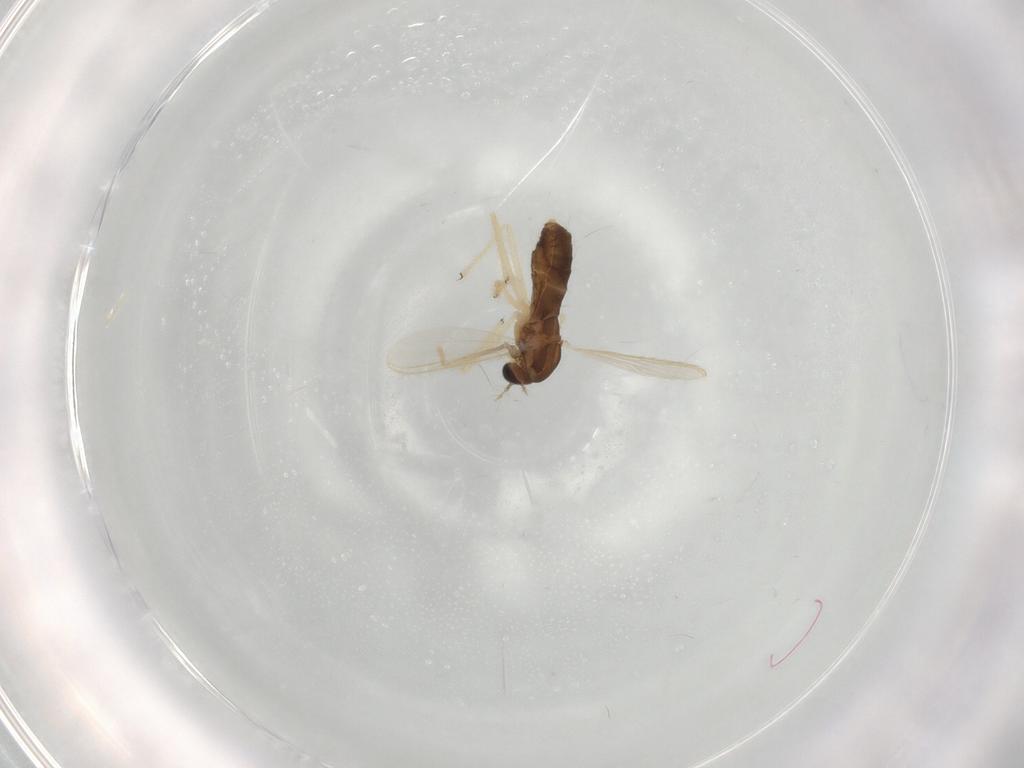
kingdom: Animalia
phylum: Arthropoda
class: Insecta
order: Diptera
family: Chironomidae
